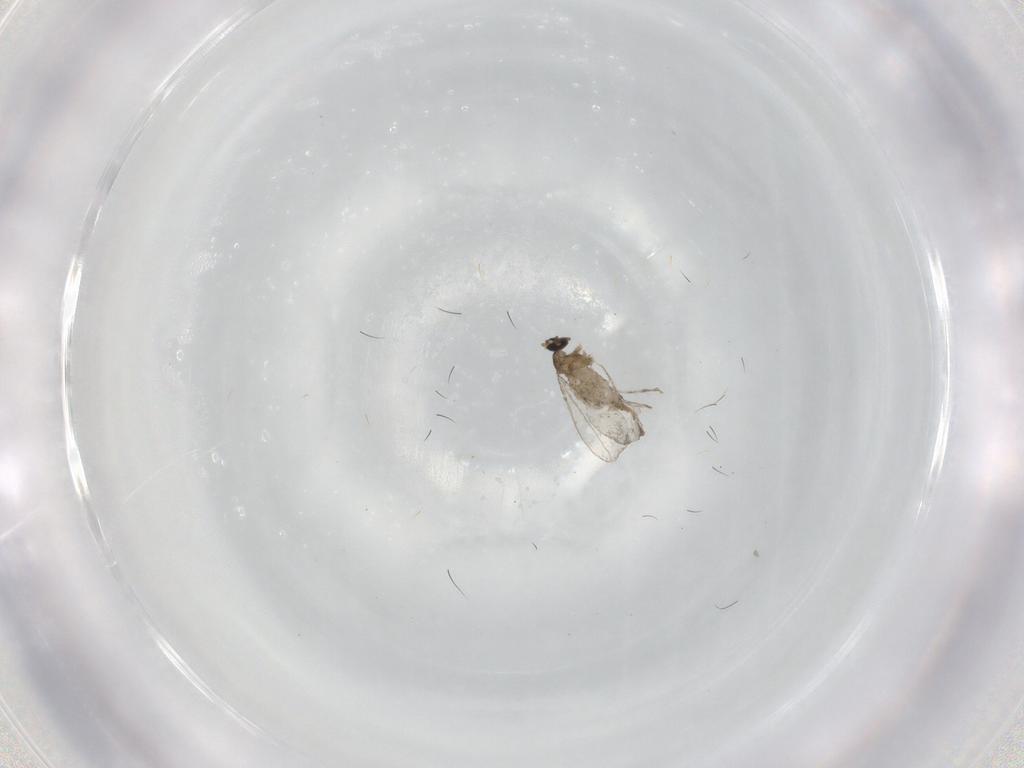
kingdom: Animalia
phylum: Arthropoda
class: Insecta
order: Diptera
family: Cecidomyiidae
